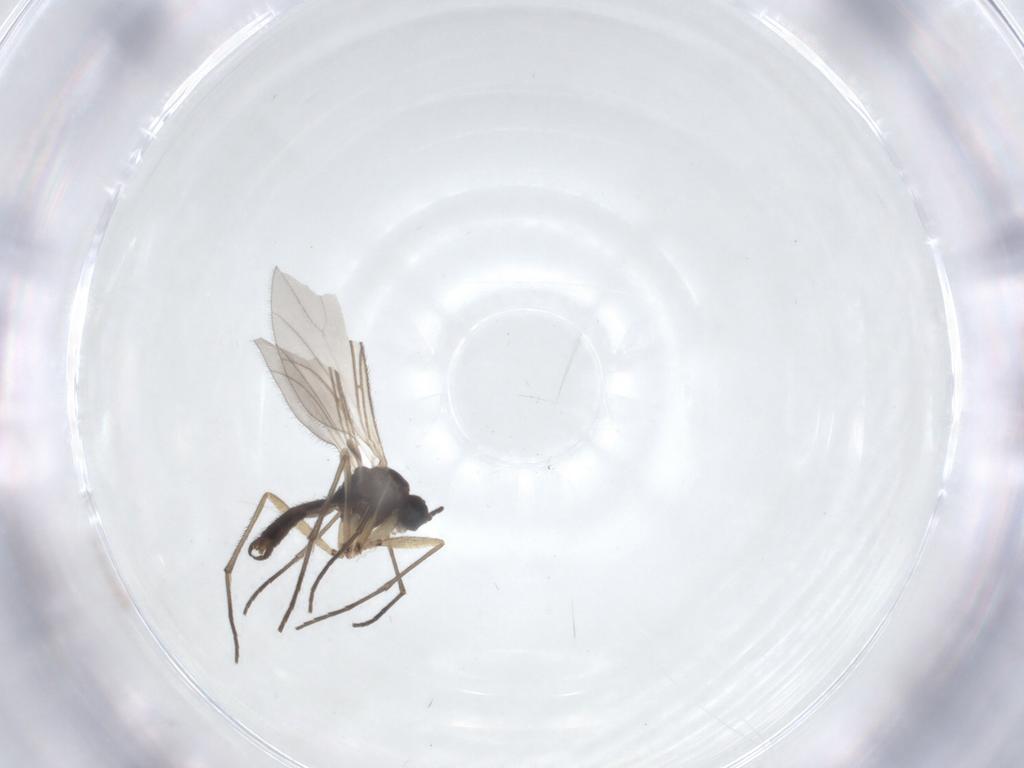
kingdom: Animalia
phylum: Arthropoda
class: Insecta
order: Diptera
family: Sciaridae
